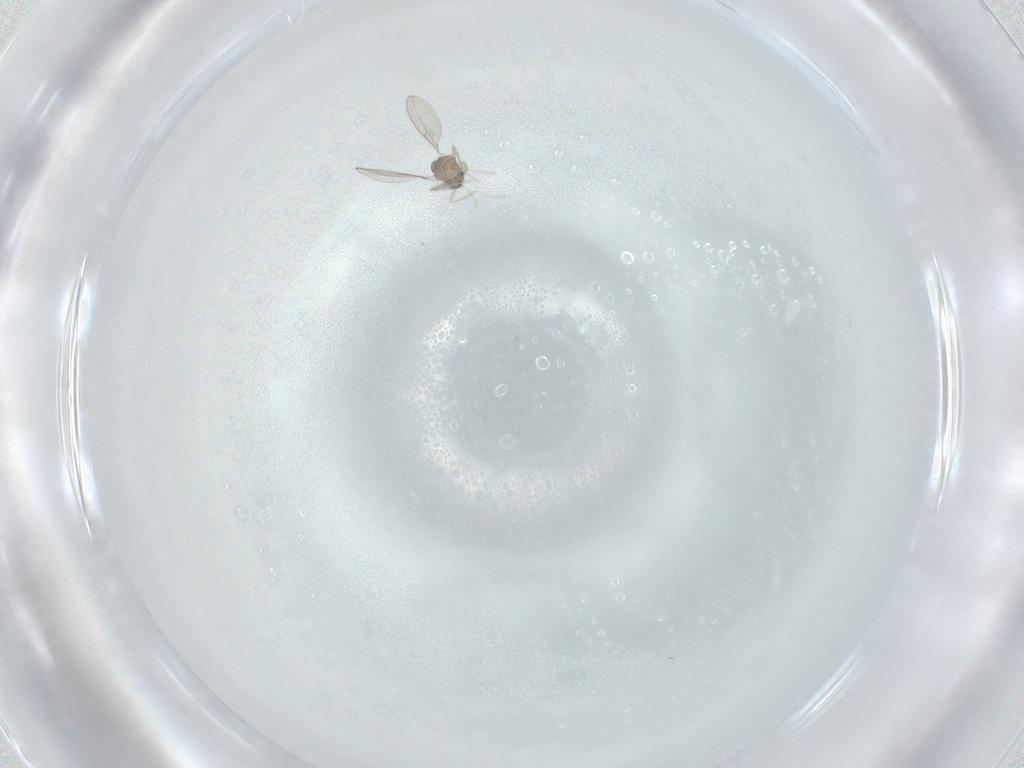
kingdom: Animalia
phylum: Arthropoda
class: Insecta
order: Diptera
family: Cecidomyiidae
